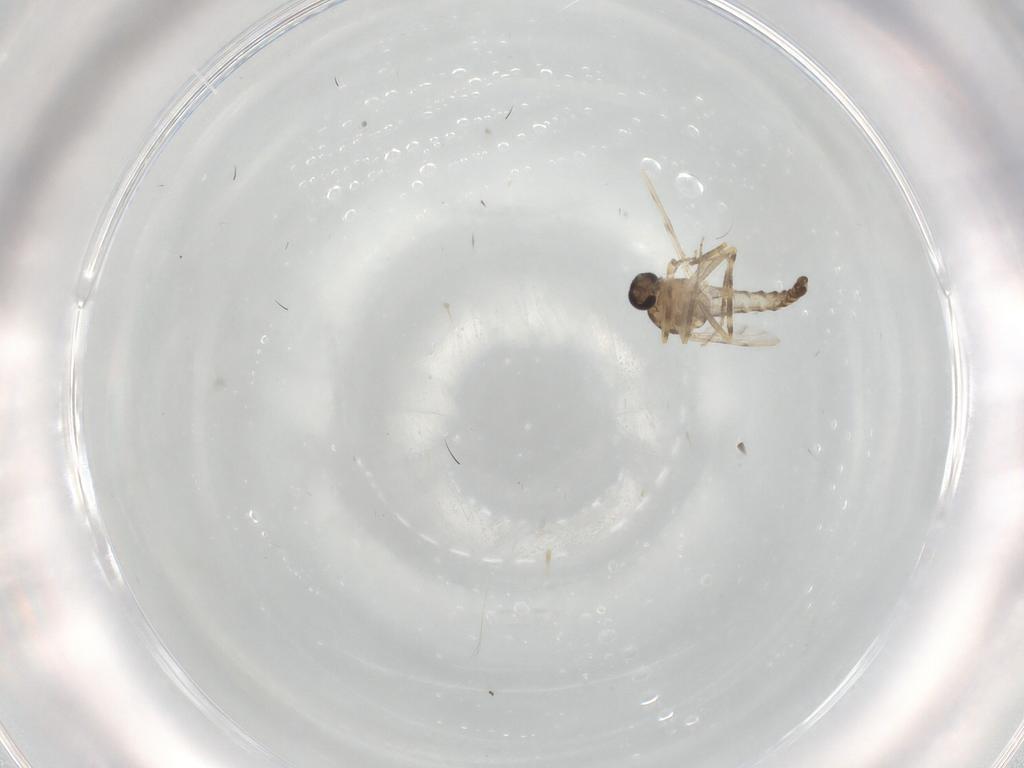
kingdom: Animalia
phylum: Arthropoda
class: Insecta
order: Diptera
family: Ceratopogonidae
